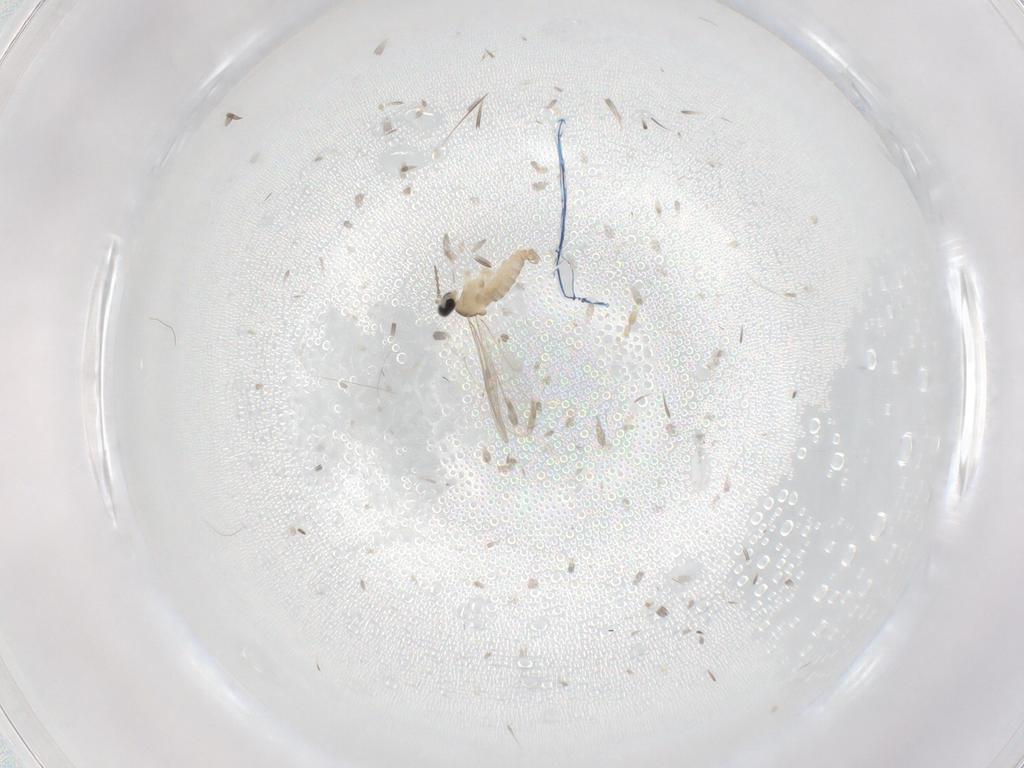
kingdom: Animalia
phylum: Arthropoda
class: Insecta
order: Diptera
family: Cecidomyiidae
